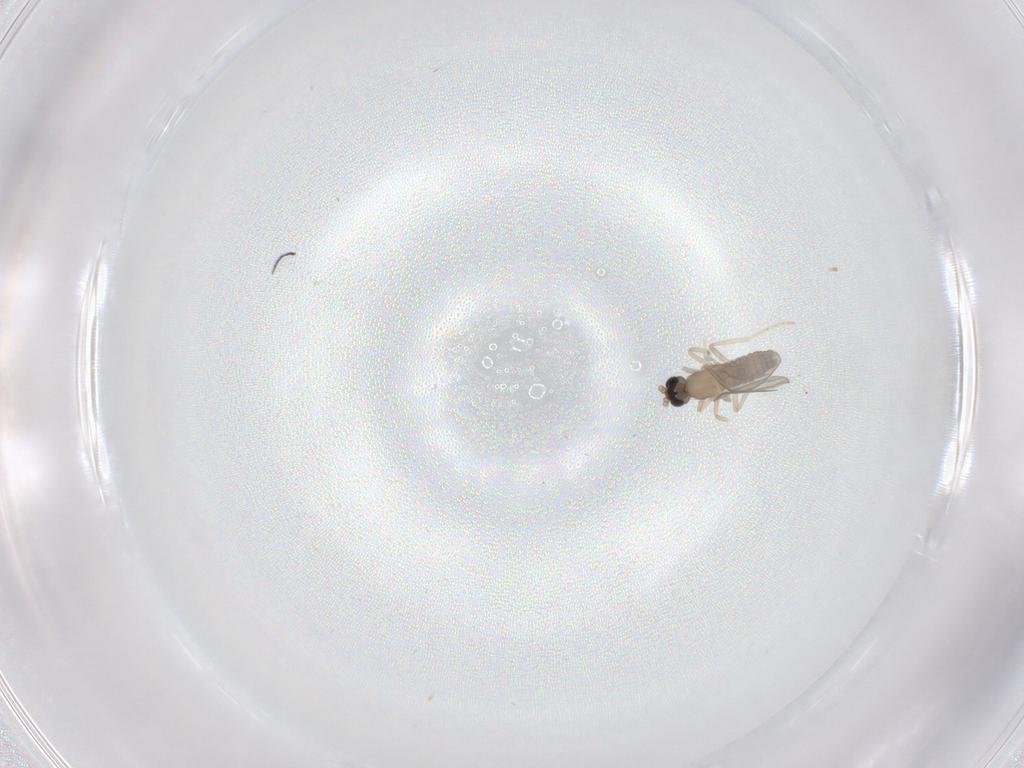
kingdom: Animalia
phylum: Arthropoda
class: Insecta
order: Diptera
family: Cecidomyiidae
